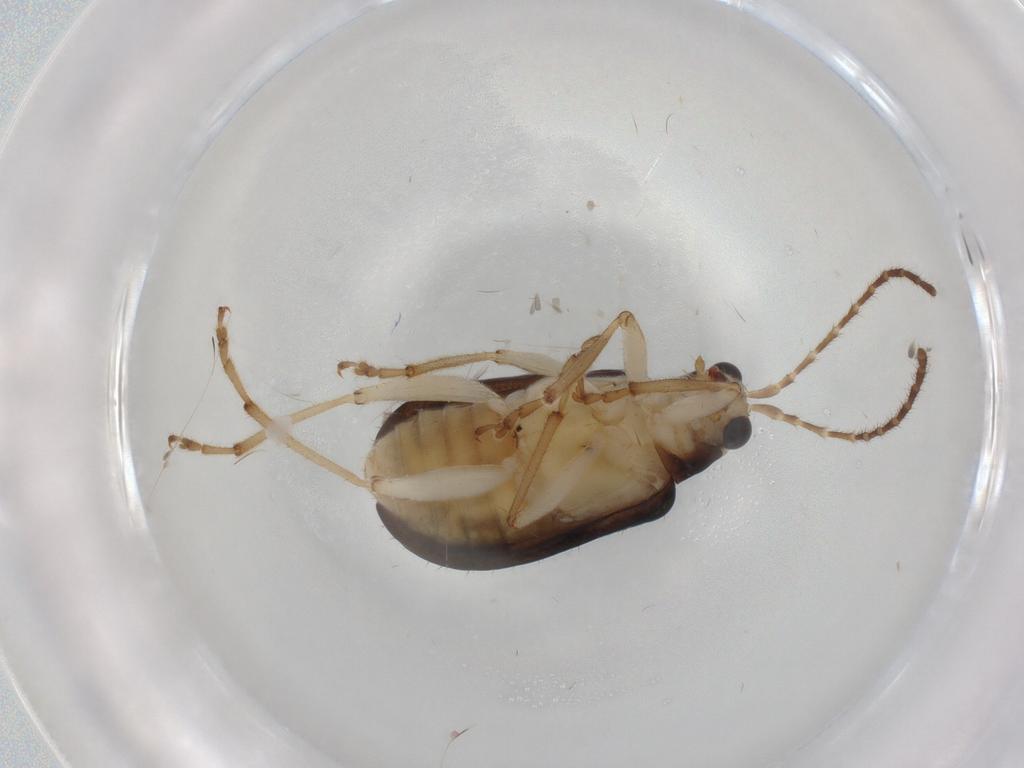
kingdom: Animalia
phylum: Arthropoda
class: Insecta
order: Coleoptera
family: Chrysomelidae
